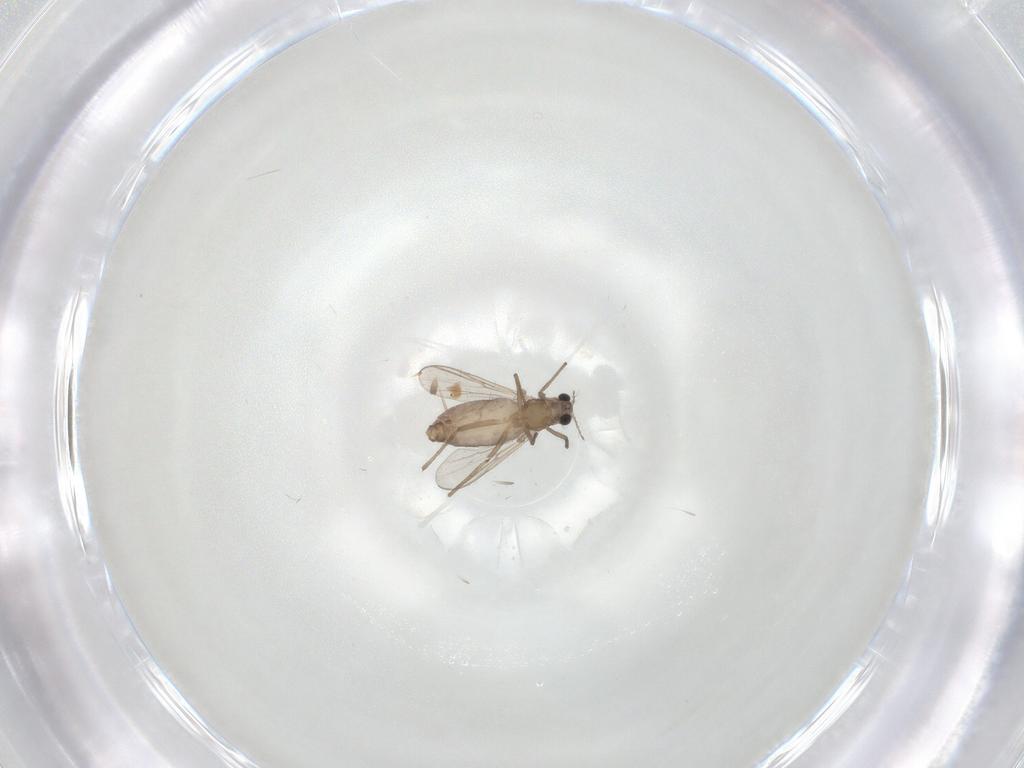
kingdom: Animalia
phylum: Arthropoda
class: Insecta
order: Diptera
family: Chironomidae
